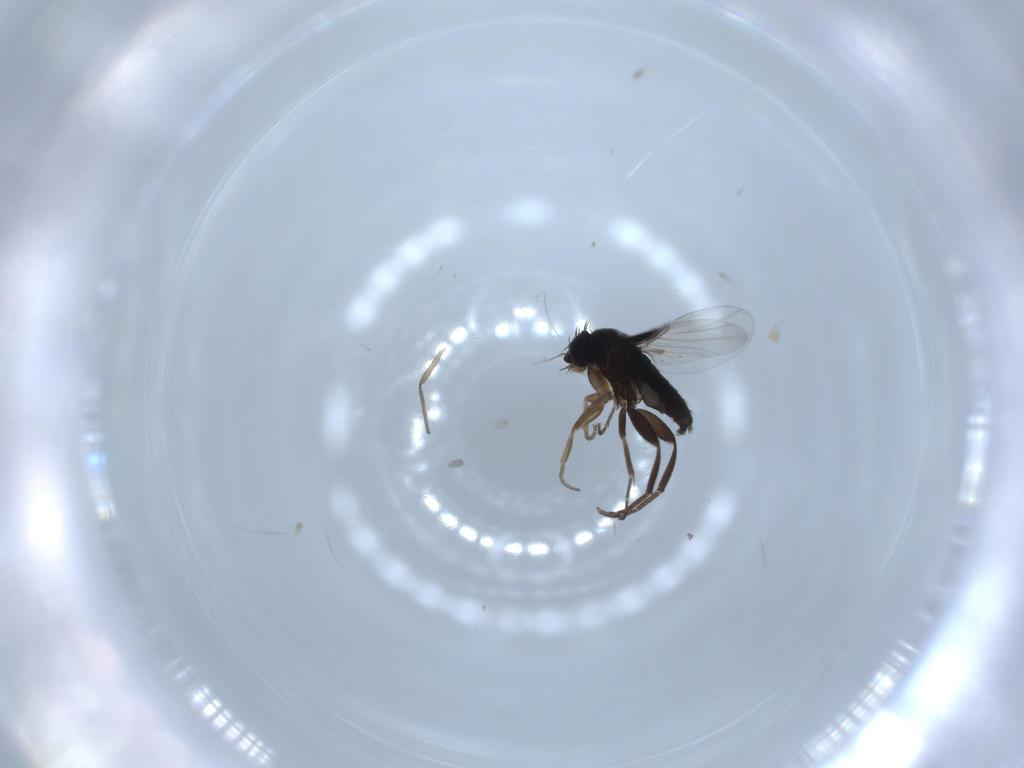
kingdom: Animalia
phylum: Arthropoda
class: Insecta
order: Diptera
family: Phoridae
